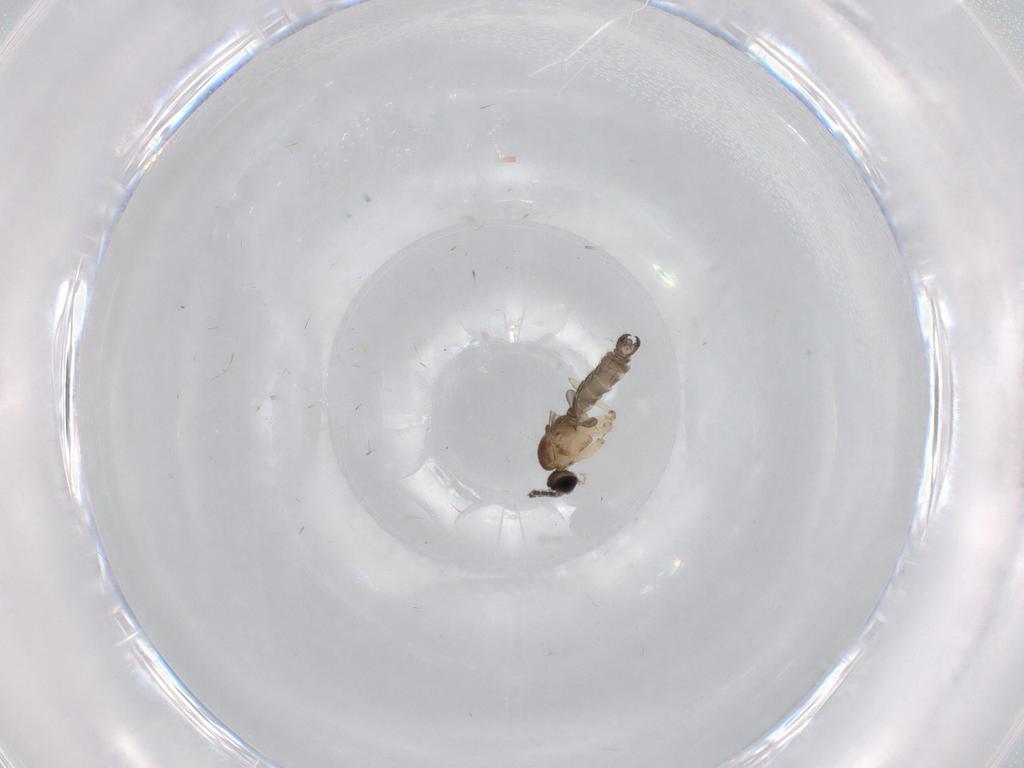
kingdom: Animalia
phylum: Arthropoda
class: Insecta
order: Diptera
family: Sciaridae
